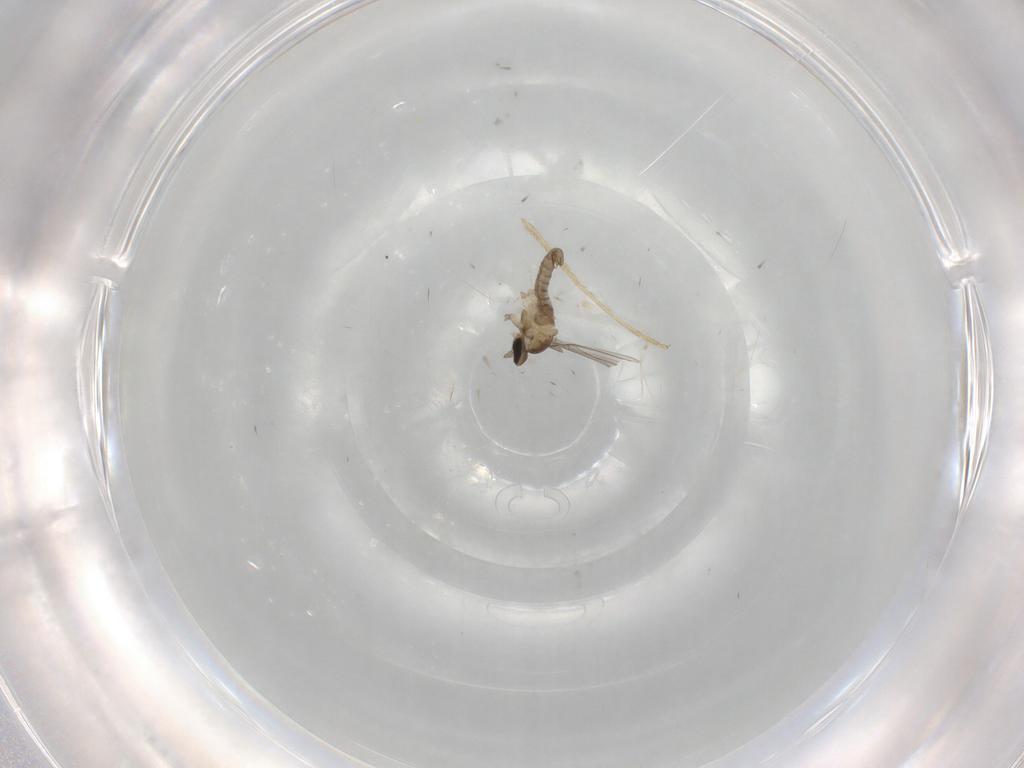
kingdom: Animalia
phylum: Arthropoda
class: Insecta
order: Diptera
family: Cecidomyiidae
